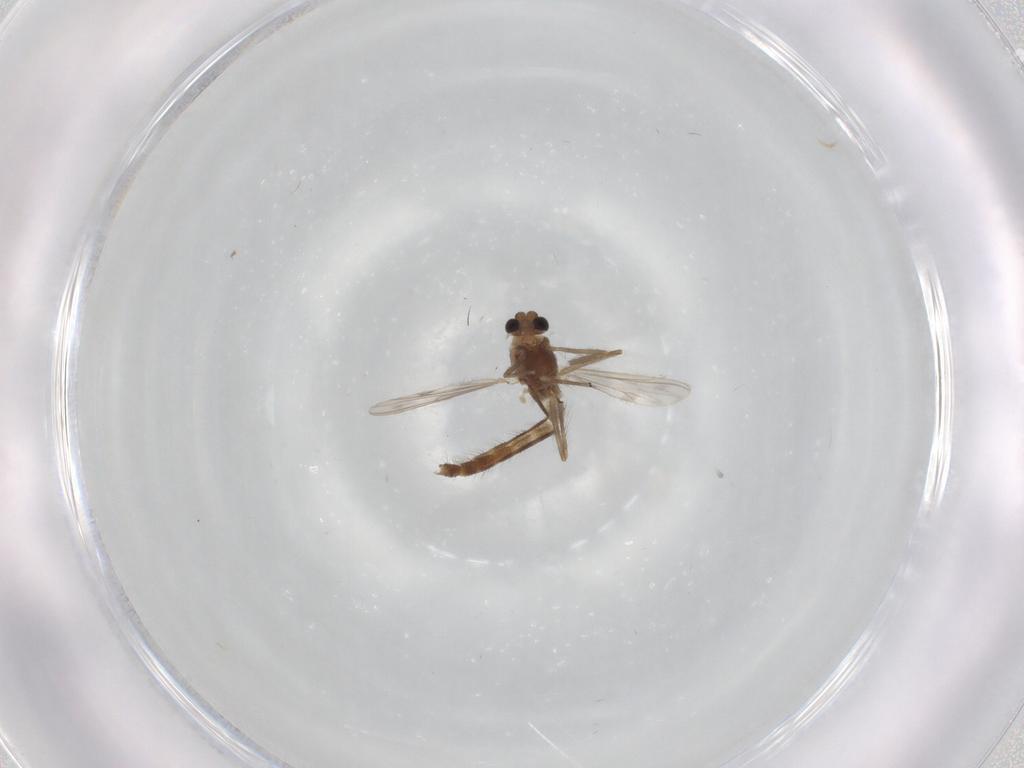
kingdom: Animalia
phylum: Arthropoda
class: Insecta
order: Diptera
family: Chironomidae
